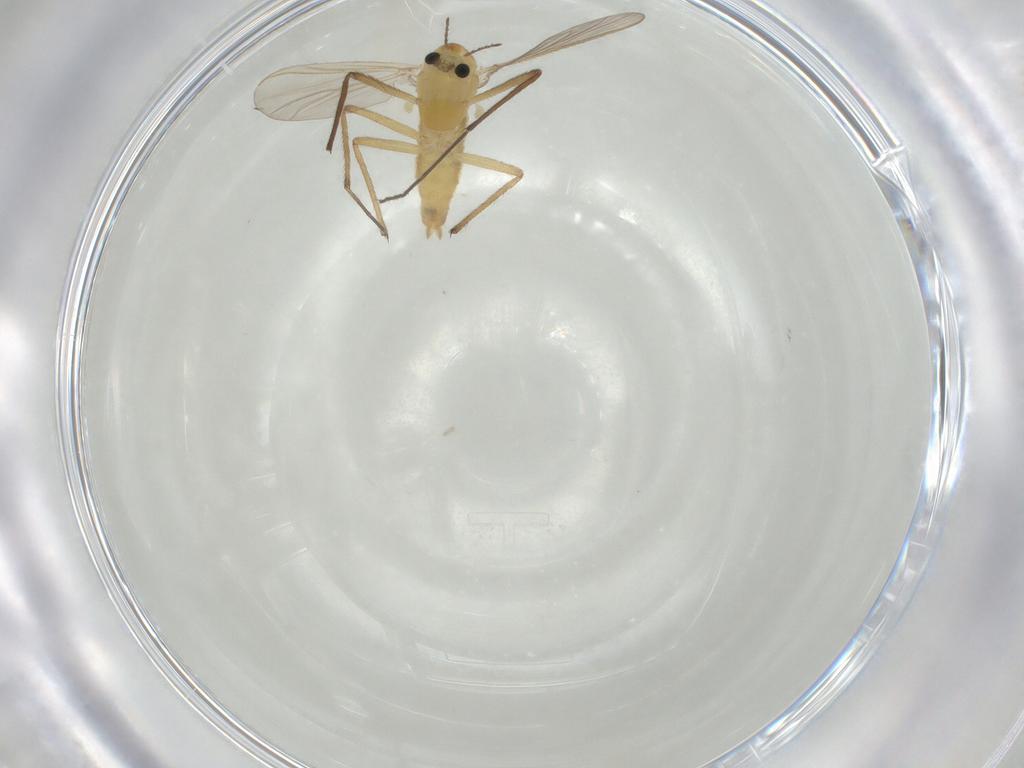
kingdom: Animalia
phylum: Arthropoda
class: Insecta
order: Diptera
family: Chironomidae
